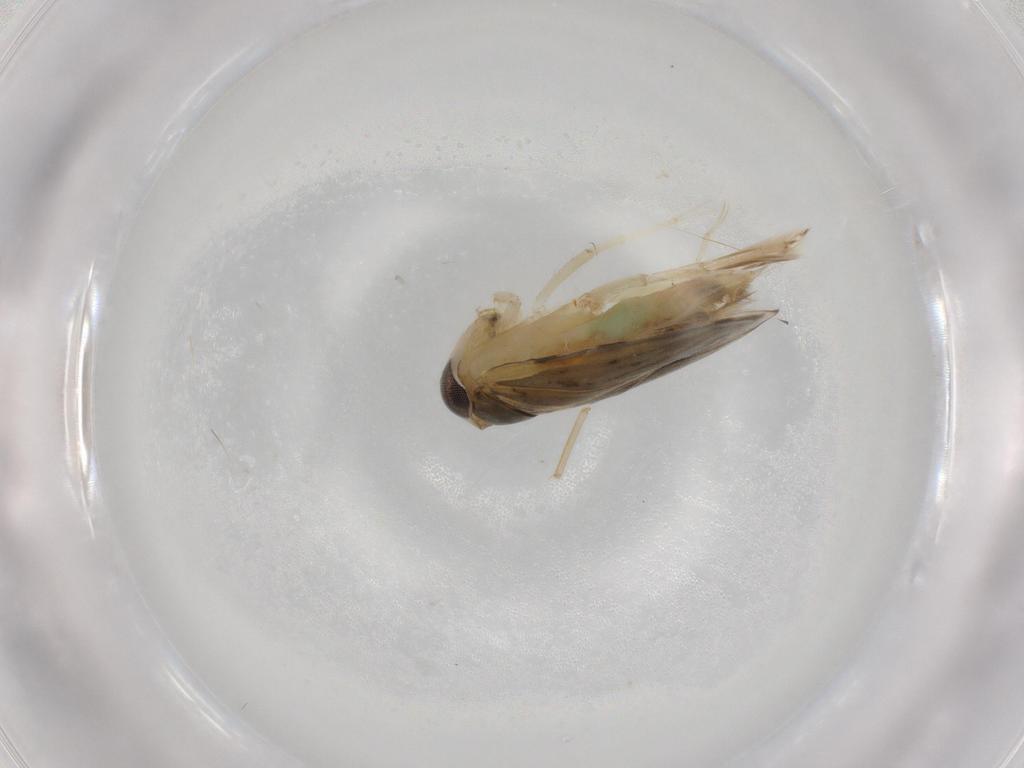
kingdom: Animalia
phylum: Arthropoda
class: Insecta
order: Hemiptera
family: Corixidae
